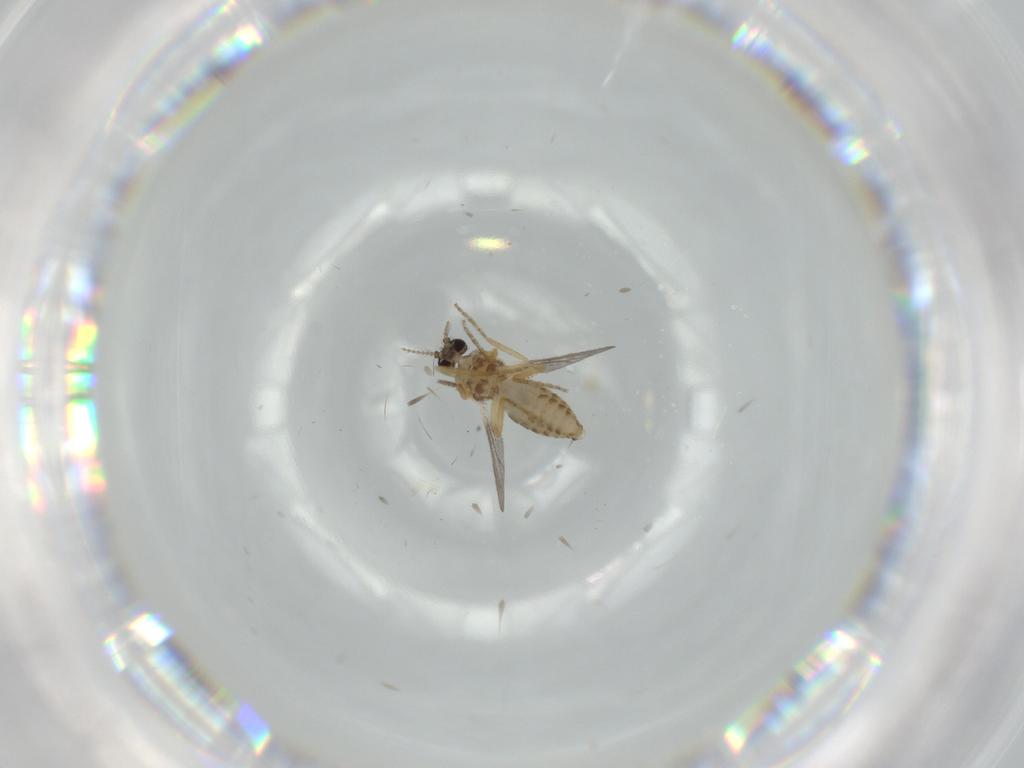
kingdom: Animalia
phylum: Arthropoda
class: Insecta
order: Diptera
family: Ceratopogonidae
